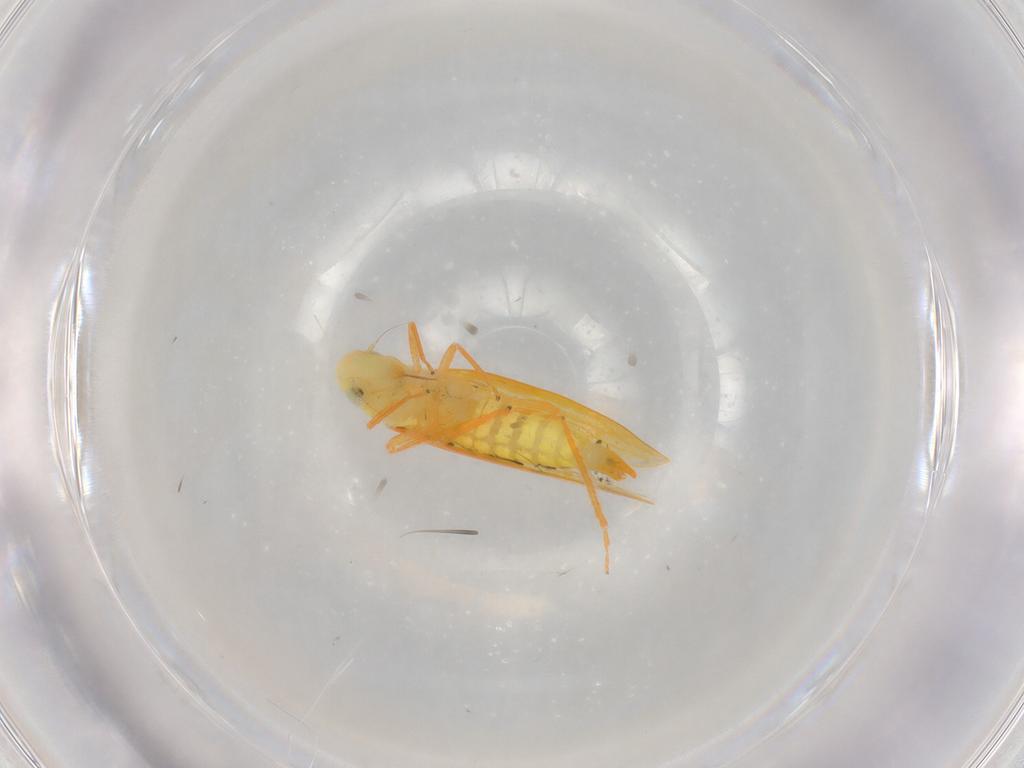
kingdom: Animalia
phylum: Arthropoda
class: Insecta
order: Hemiptera
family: Cicadellidae
